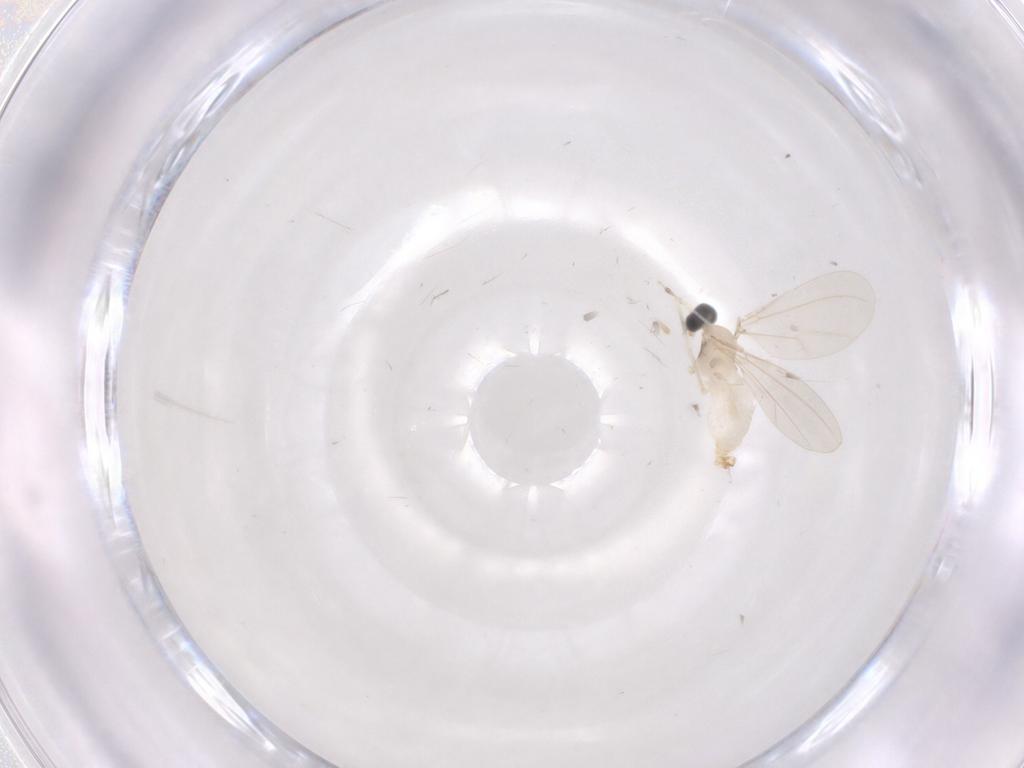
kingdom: Animalia
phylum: Arthropoda
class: Insecta
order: Diptera
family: Cecidomyiidae
